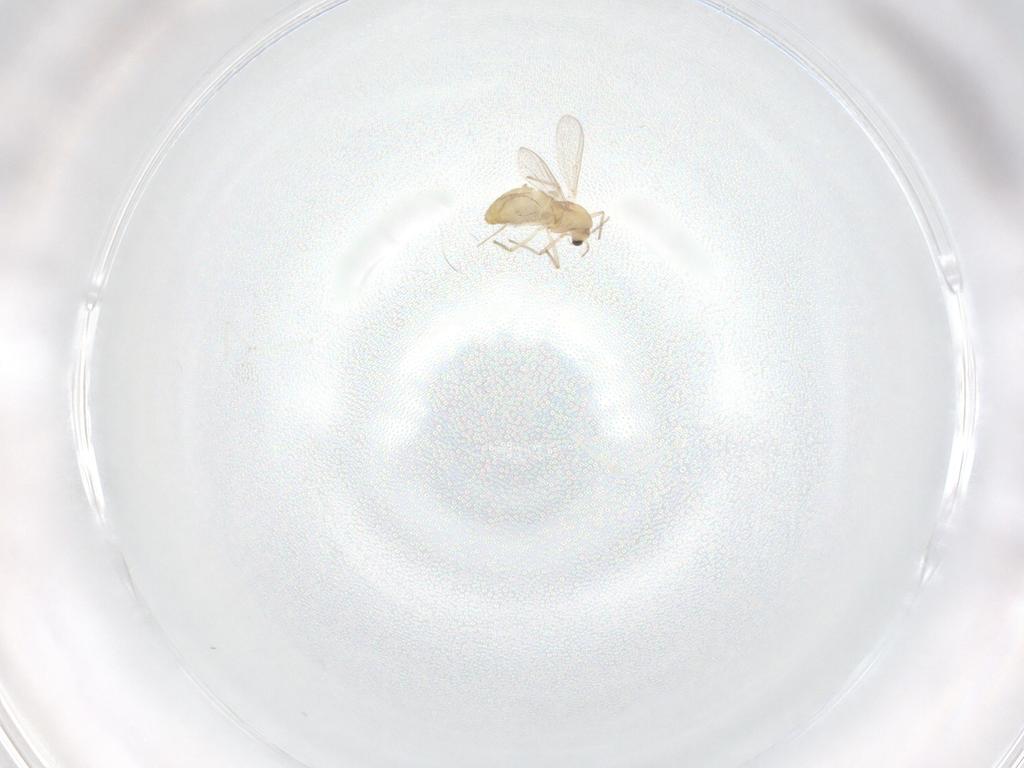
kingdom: Animalia
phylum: Arthropoda
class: Insecta
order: Diptera
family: Chironomidae
